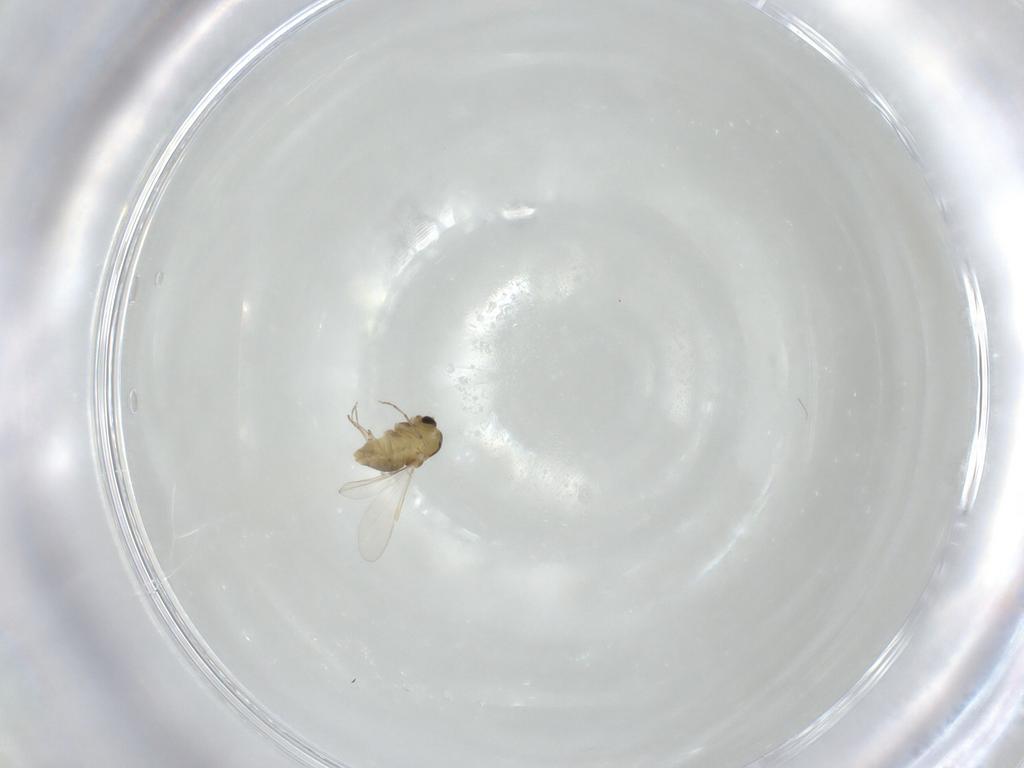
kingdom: Animalia
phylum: Arthropoda
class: Insecta
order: Diptera
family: Chironomidae
